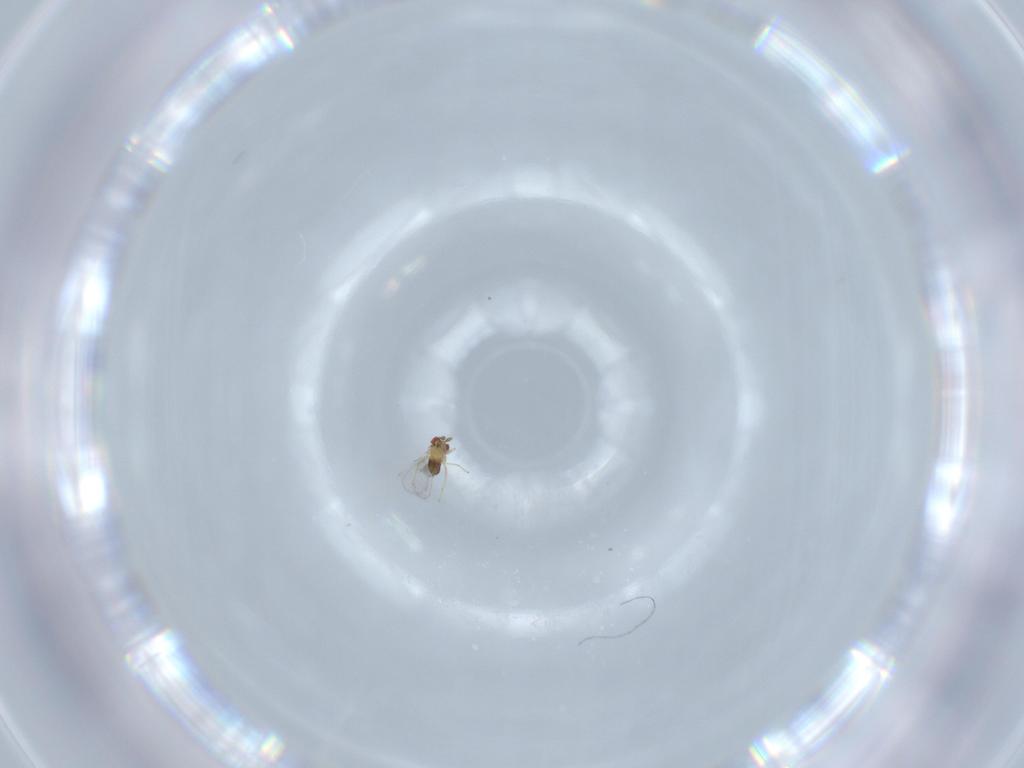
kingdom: Animalia
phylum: Arthropoda
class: Insecta
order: Hymenoptera
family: Trichogrammatidae
